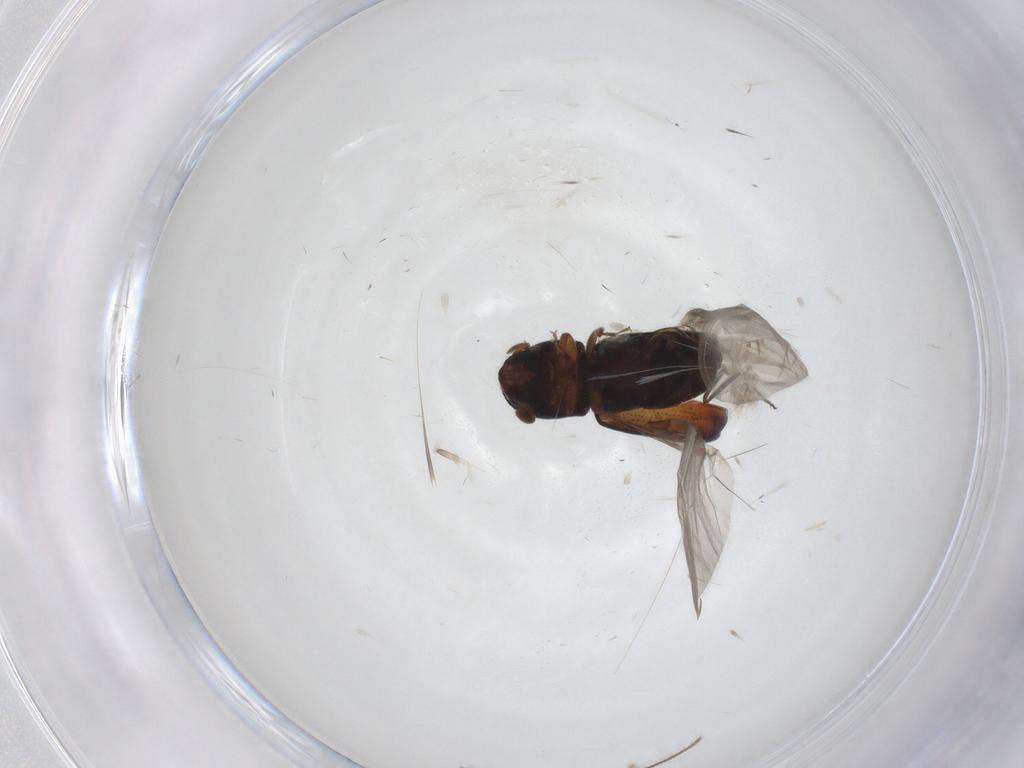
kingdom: Animalia
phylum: Arthropoda
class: Insecta
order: Coleoptera
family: Curculionidae
